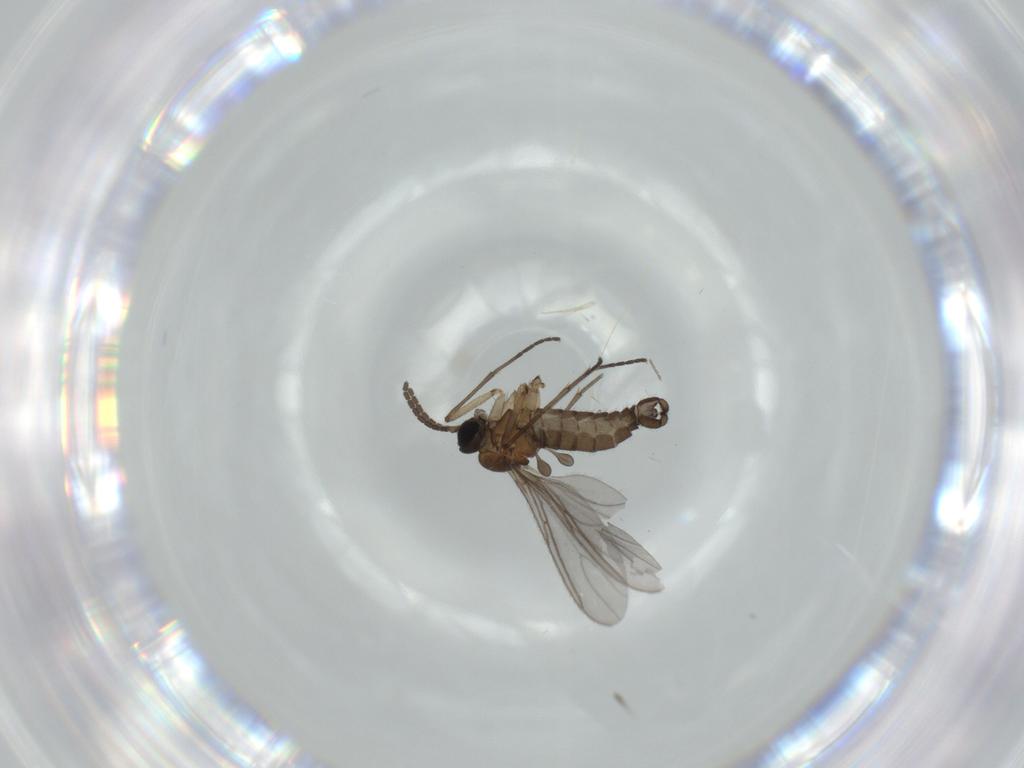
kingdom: Animalia
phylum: Arthropoda
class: Insecta
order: Diptera
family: Sciaridae
